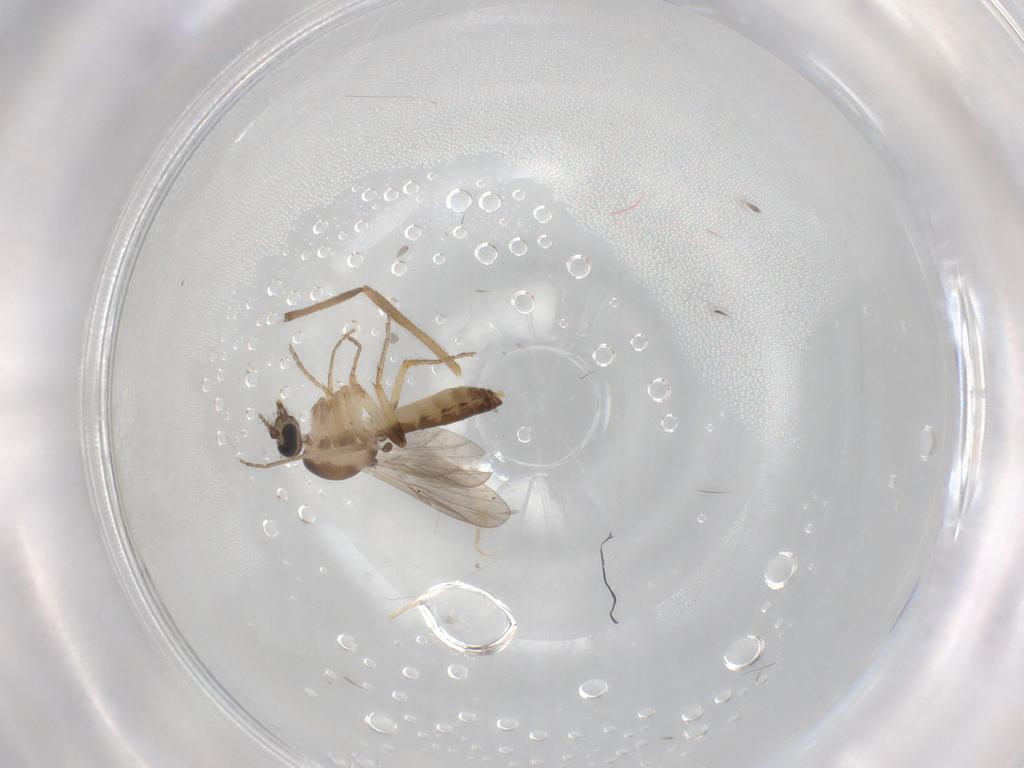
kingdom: Animalia
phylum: Arthropoda
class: Insecta
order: Diptera
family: Ceratopogonidae
